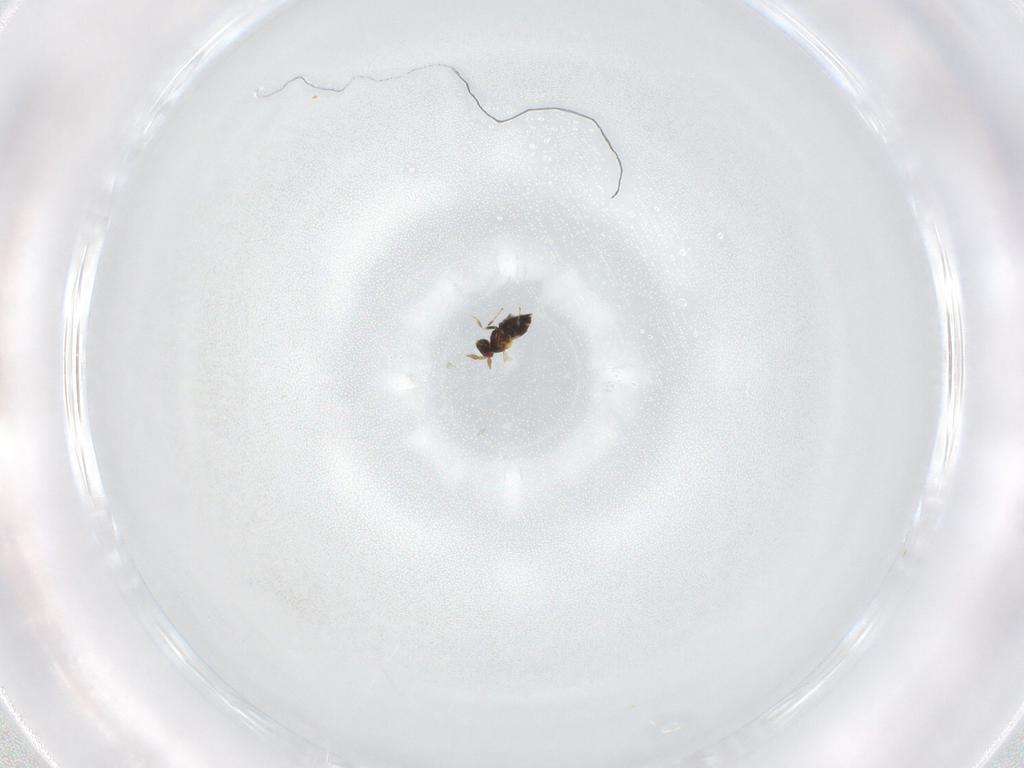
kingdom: Animalia
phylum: Arthropoda
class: Insecta
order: Hymenoptera
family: Trichogrammatidae
